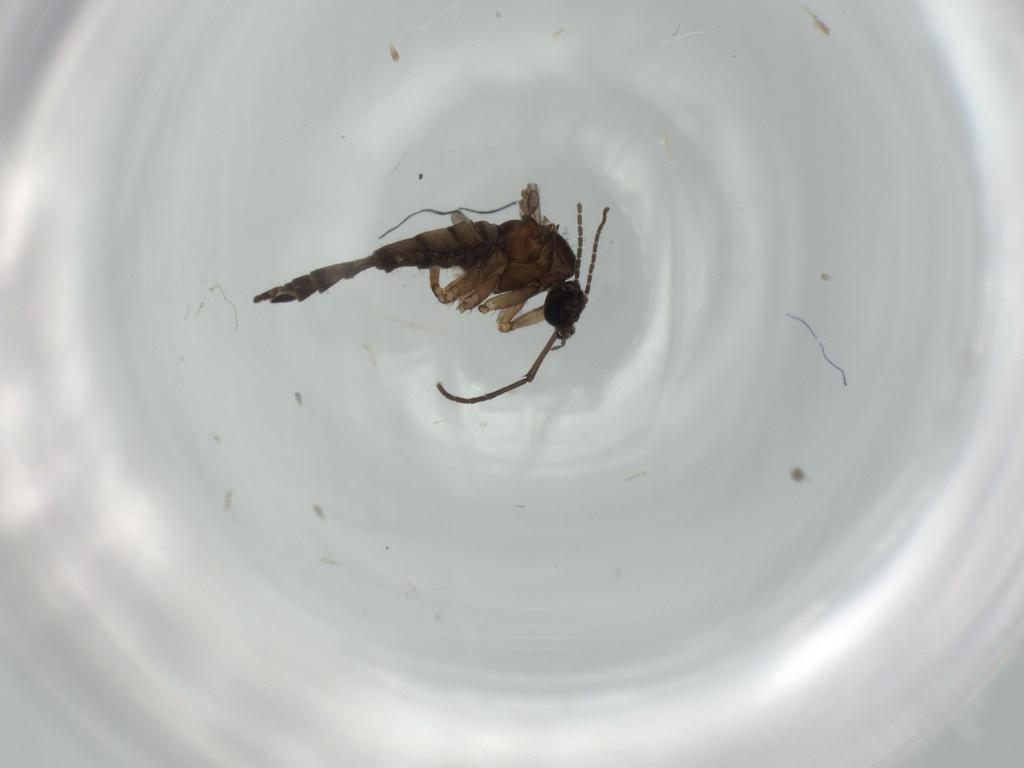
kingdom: Animalia
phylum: Arthropoda
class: Insecta
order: Diptera
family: Sciaridae
